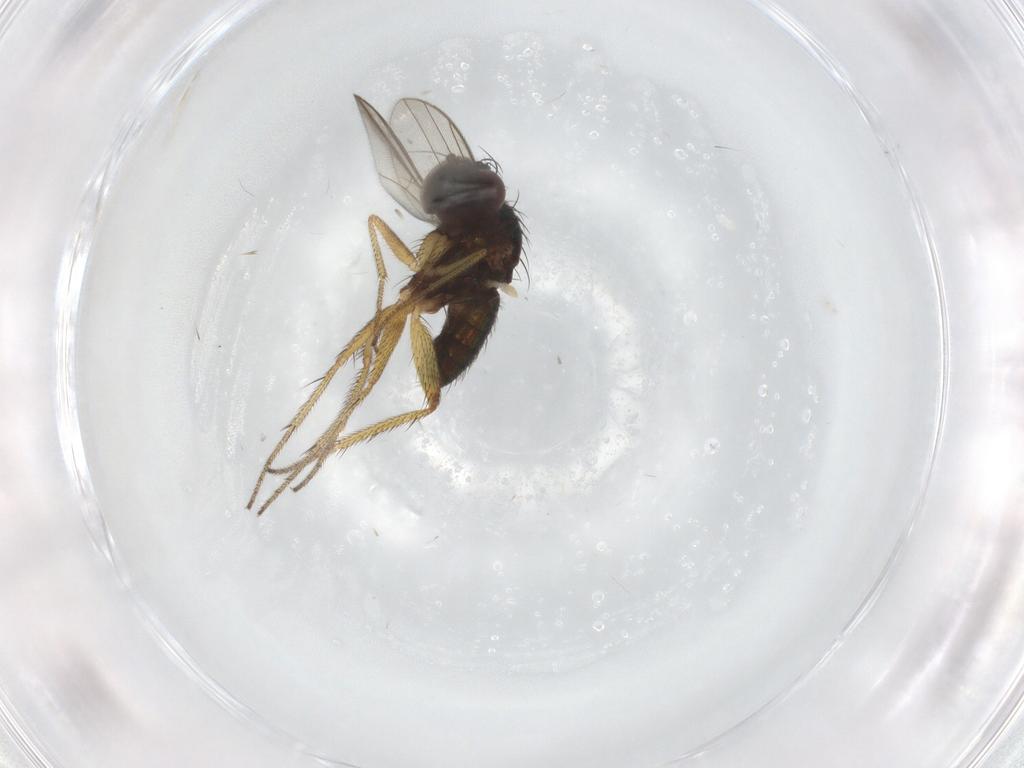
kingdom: Animalia
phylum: Arthropoda
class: Insecta
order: Diptera
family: Dolichopodidae
